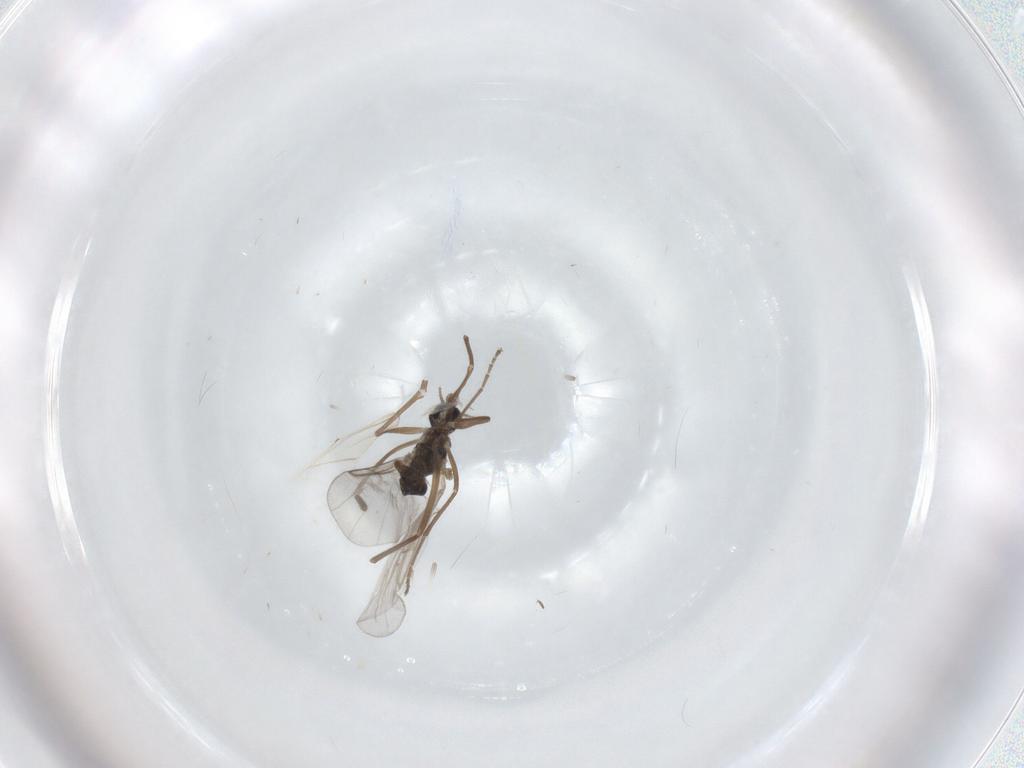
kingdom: Animalia
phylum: Arthropoda
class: Insecta
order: Diptera
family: Cecidomyiidae
